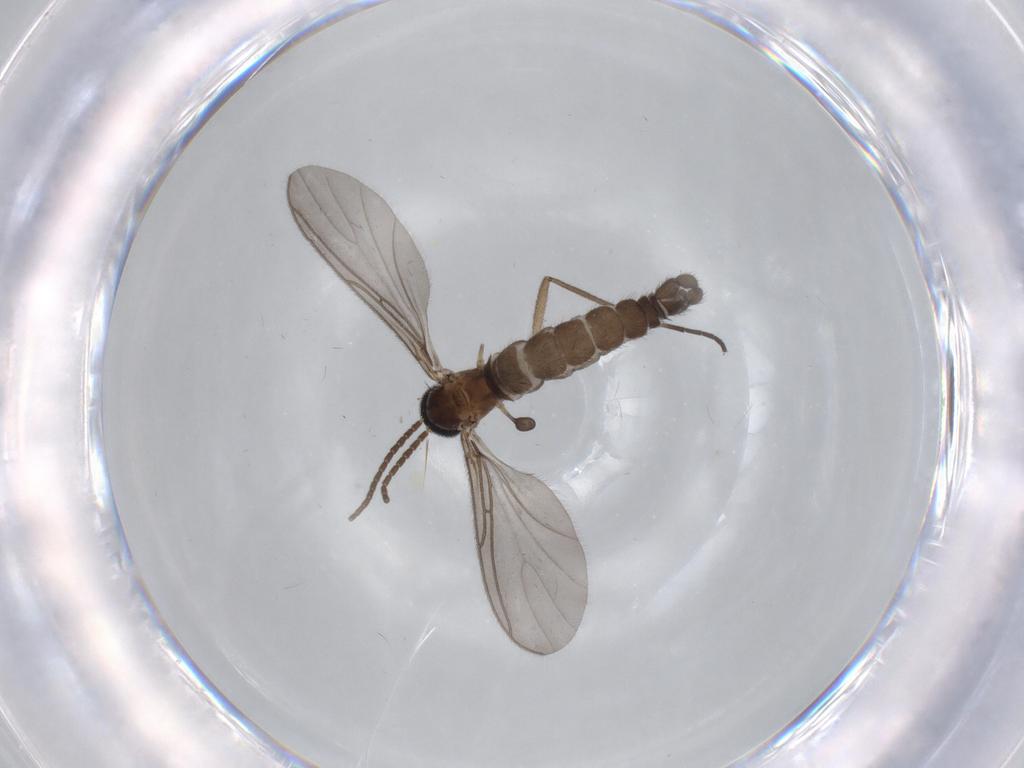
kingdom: Animalia
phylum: Arthropoda
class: Insecta
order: Diptera
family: Sciaridae
